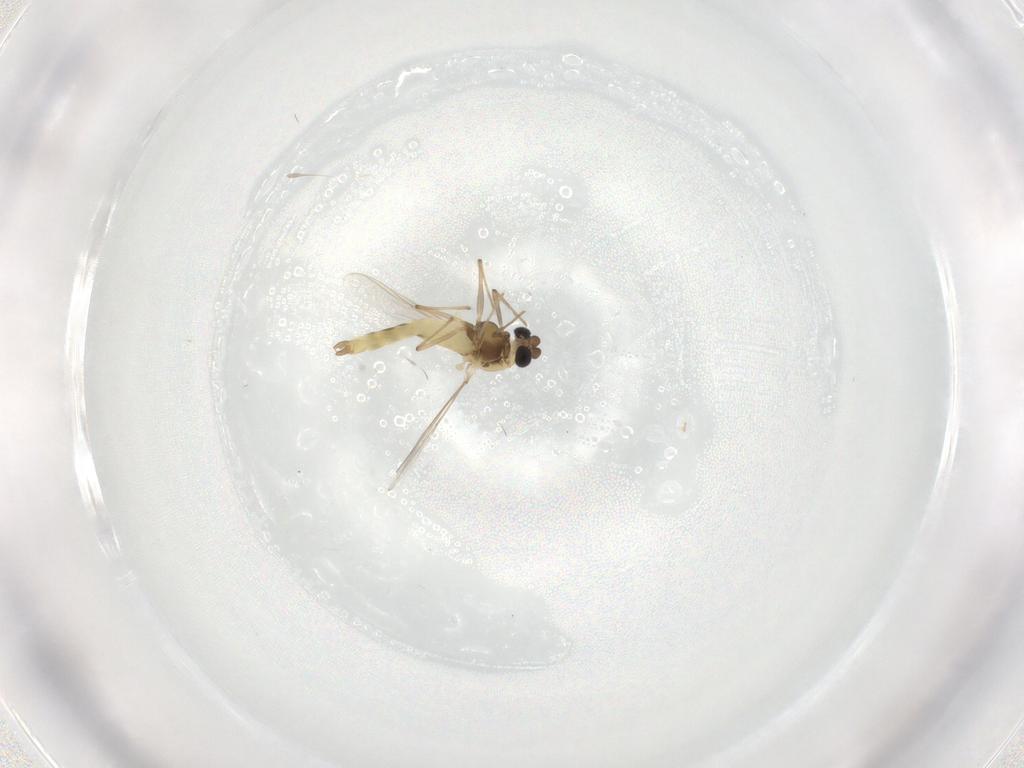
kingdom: Animalia
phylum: Arthropoda
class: Insecta
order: Diptera
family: Chironomidae
